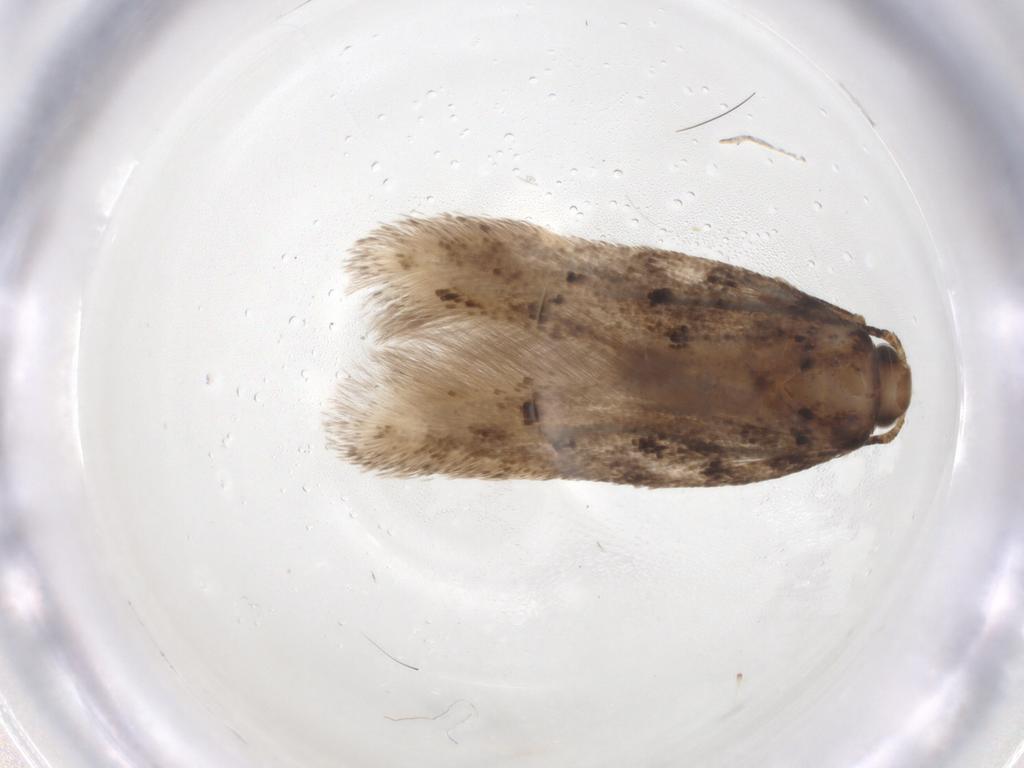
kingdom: Animalia
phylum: Arthropoda
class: Insecta
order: Lepidoptera
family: Gelechiidae
